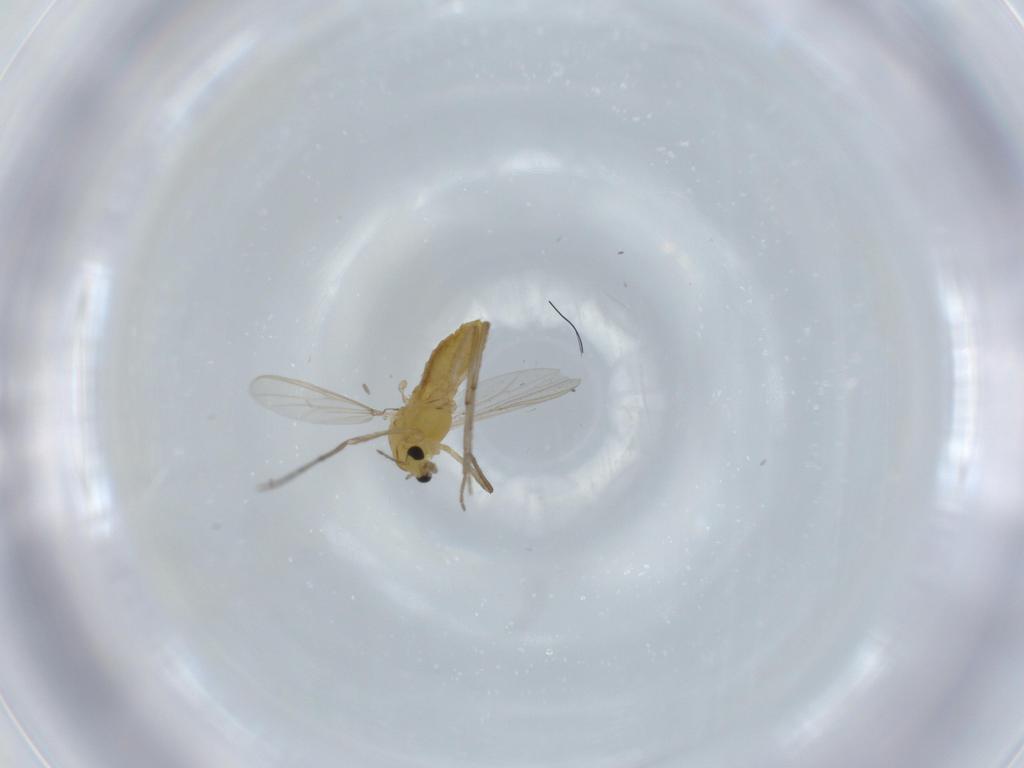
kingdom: Animalia
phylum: Arthropoda
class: Insecta
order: Diptera
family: Chironomidae
